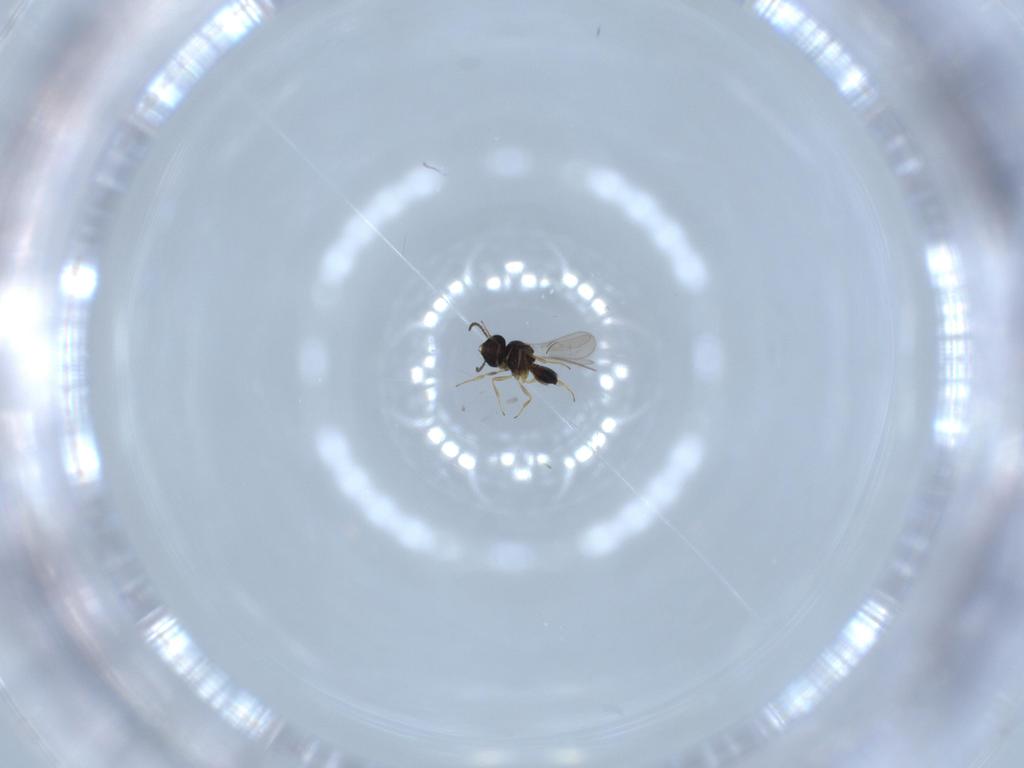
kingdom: Animalia
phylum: Arthropoda
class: Insecta
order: Hymenoptera
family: Scelionidae
